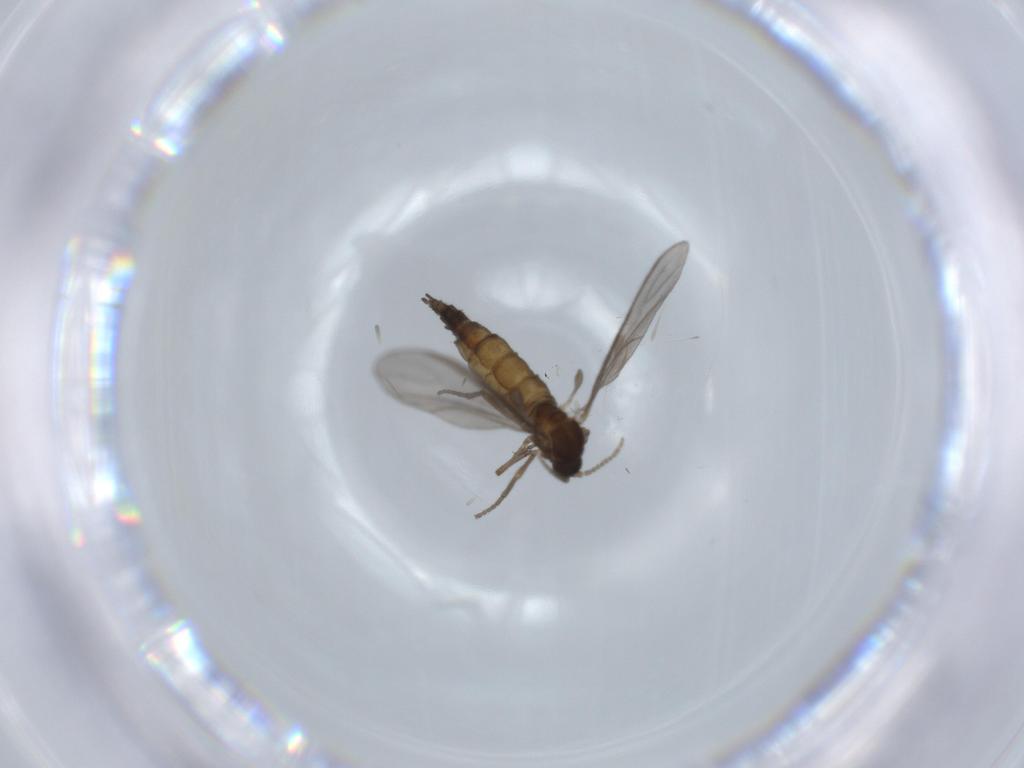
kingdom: Animalia
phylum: Arthropoda
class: Insecta
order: Diptera
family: Sciaridae
